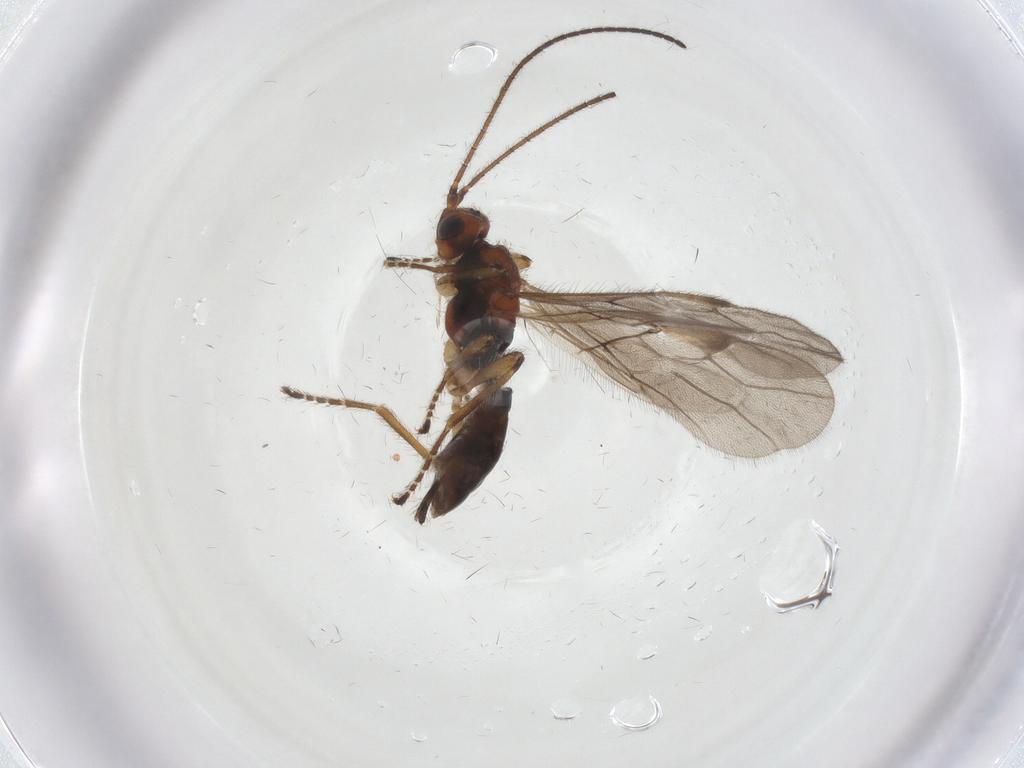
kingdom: Animalia
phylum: Arthropoda
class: Insecta
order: Hymenoptera
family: Braconidae
